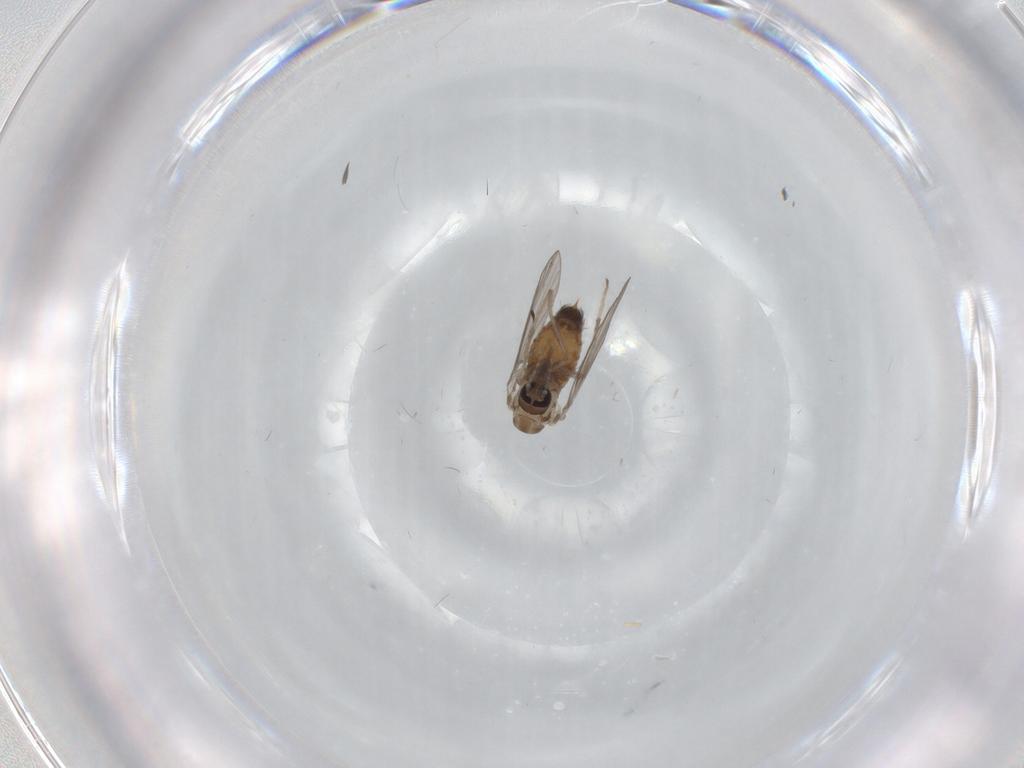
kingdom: Animalia
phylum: Arthropoda
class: Insecta
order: Diptera
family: Psychodidae
